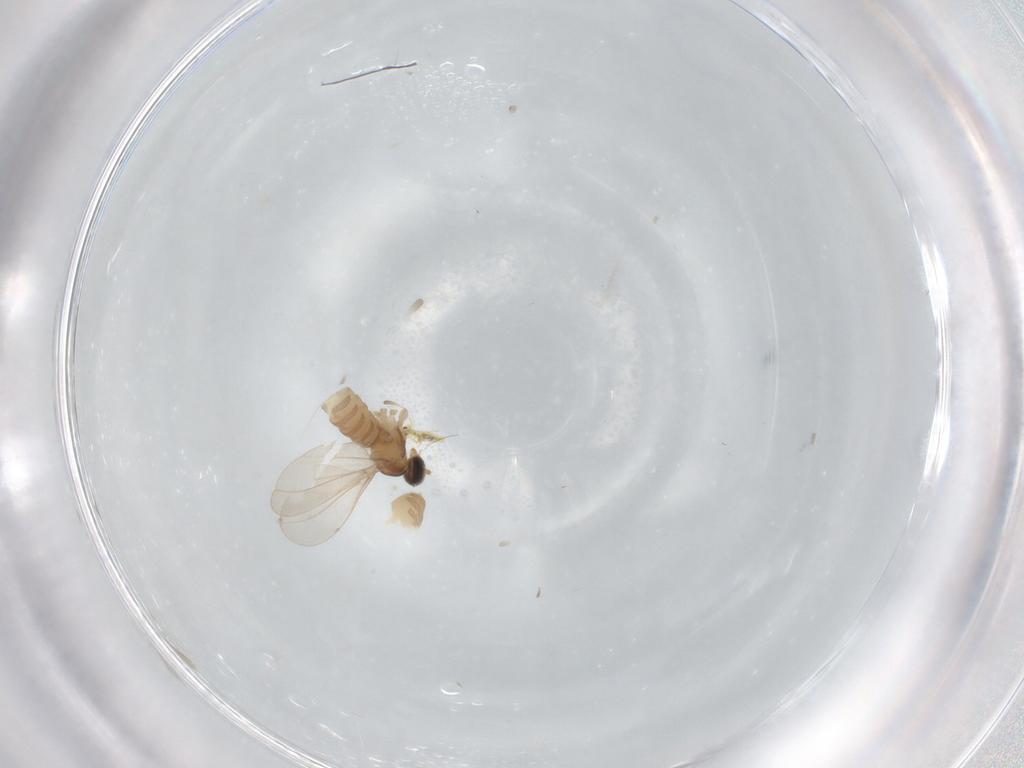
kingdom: Animalia
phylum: Arthropoda
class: Insecta
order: Diptera
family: Cecidomyiidae
